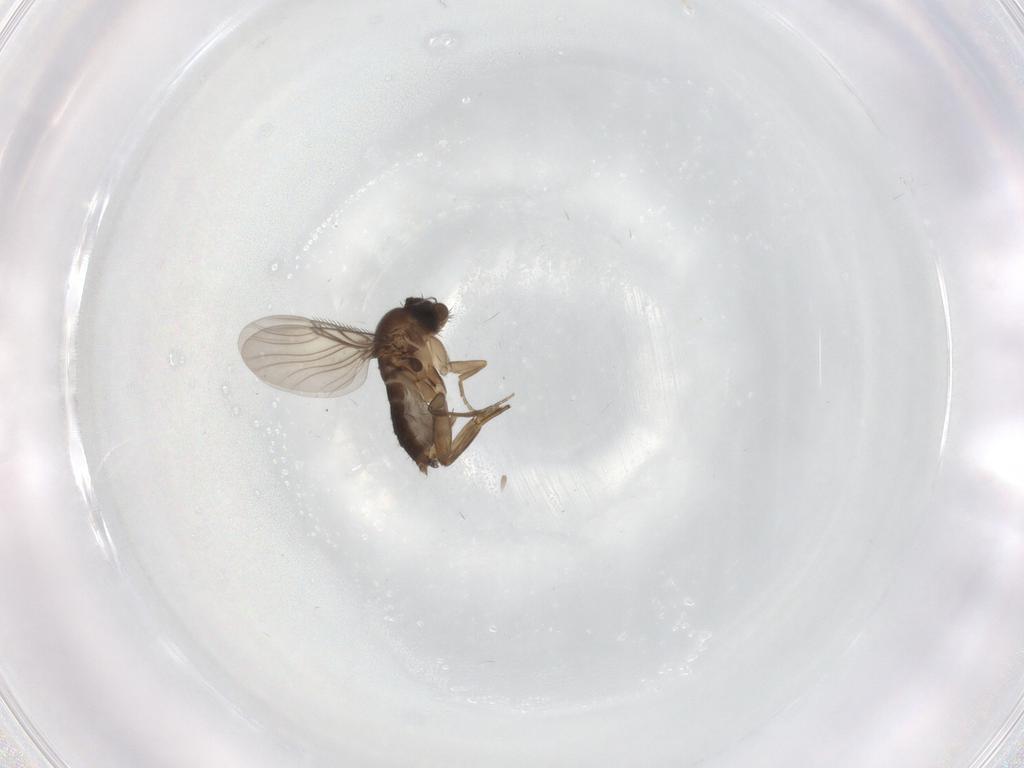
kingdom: Animalia
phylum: Arthropoda
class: Insecta
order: Diptera
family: Phoridae
